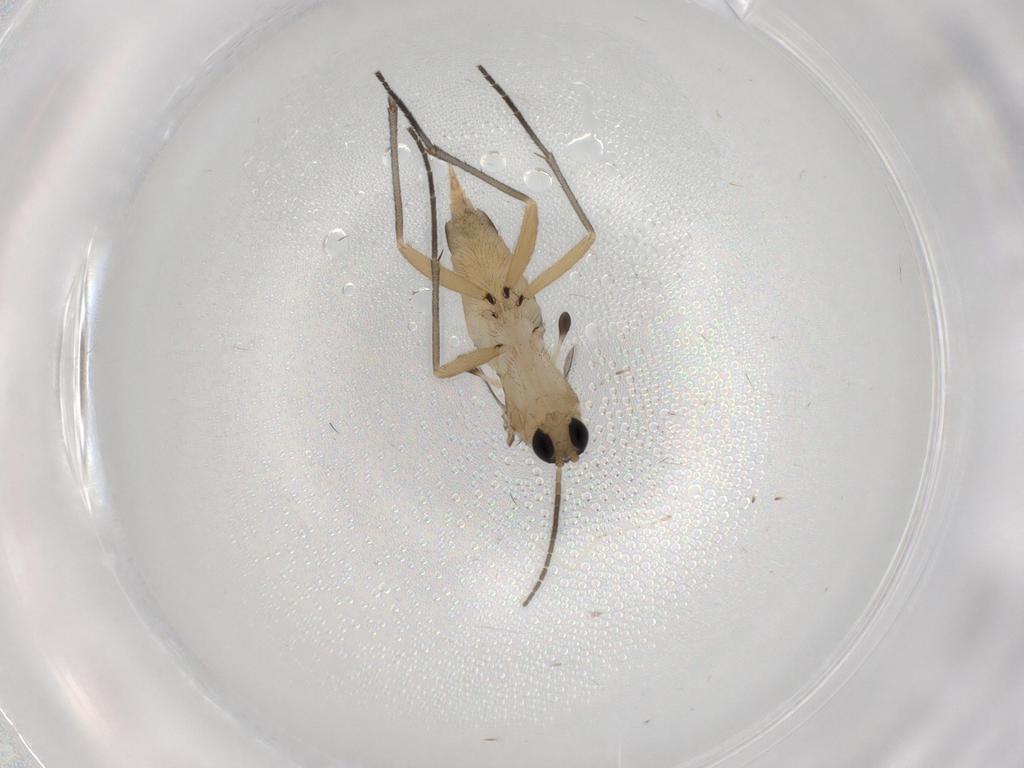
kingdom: Animalia
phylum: Arthropoda
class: Insecta
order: Diptera
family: Sciaridae
